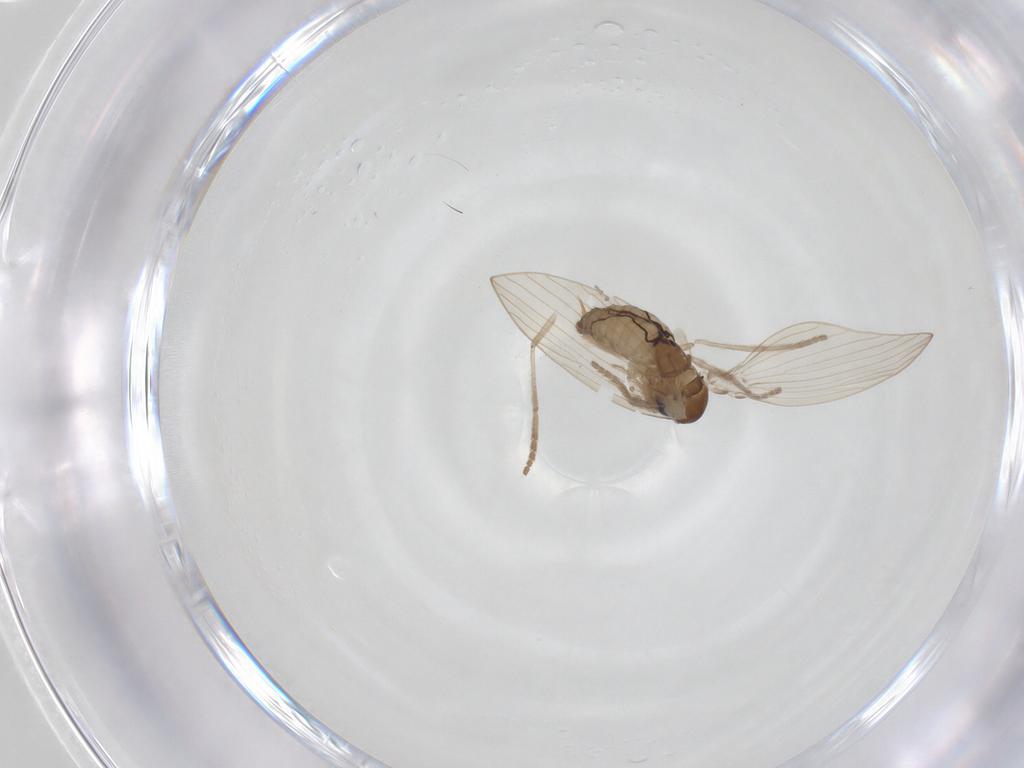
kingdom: Animalia
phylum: Arthropoda
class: Insecta
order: Diptera
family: Psychodidae
